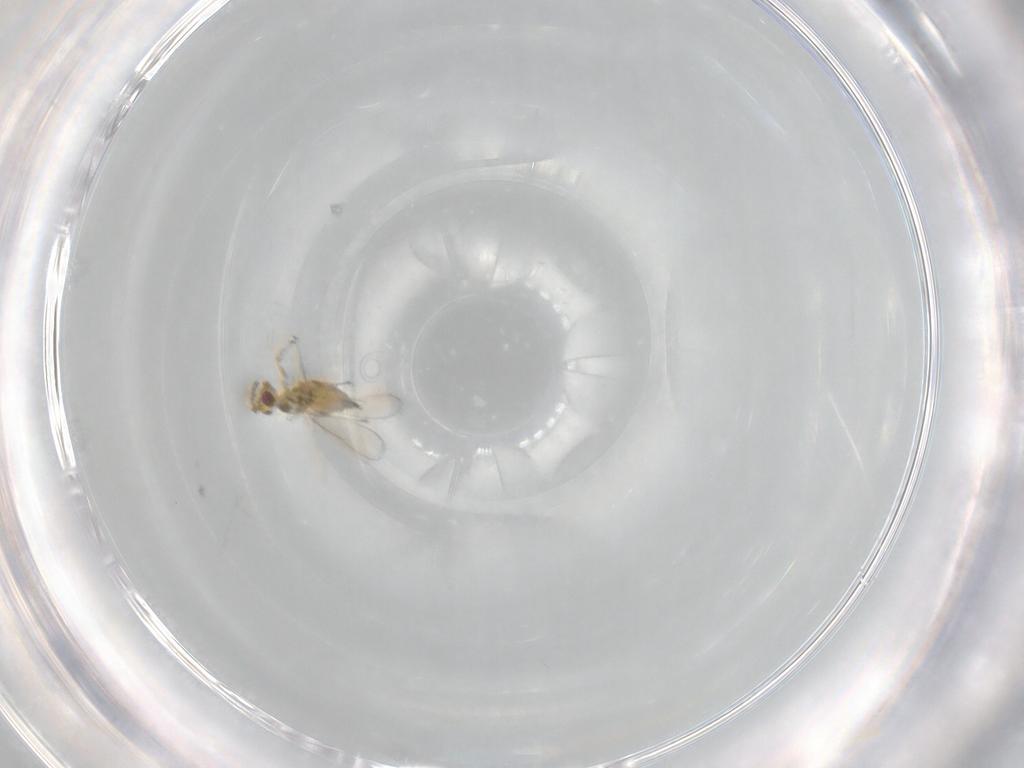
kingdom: Animalia
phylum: Arthropoda
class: Insecta
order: Hymenoptera
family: Eulophidae
